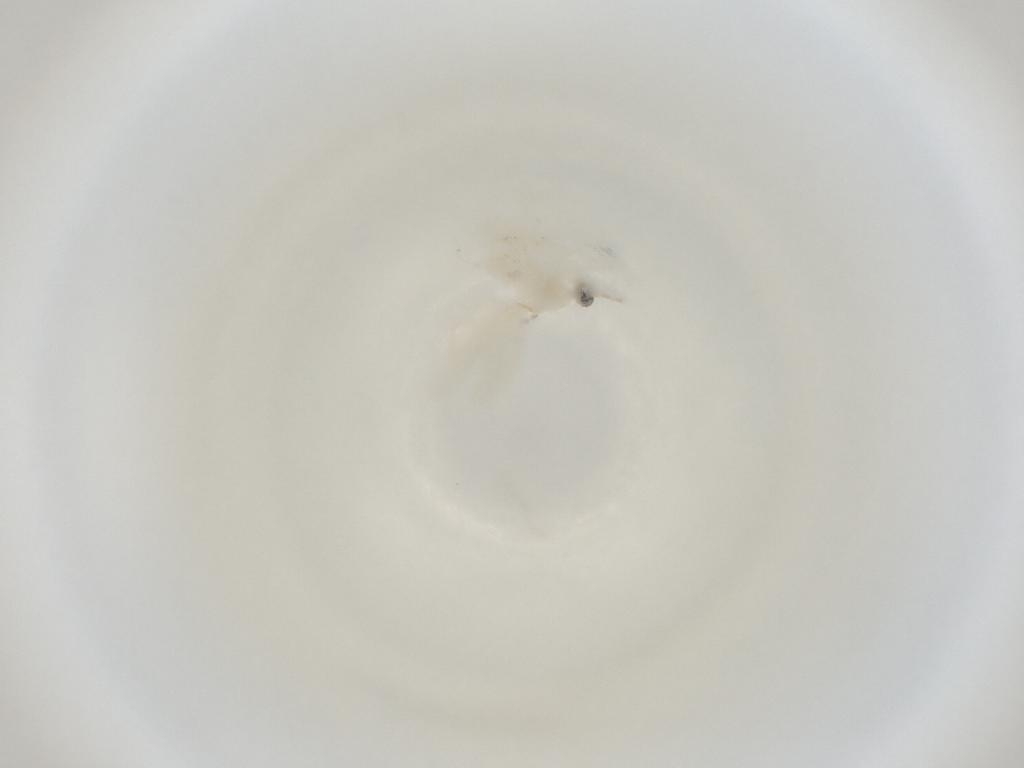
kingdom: Animalia
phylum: Arthropoda
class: Insecta
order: Diptera
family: Cecidomyiidae
